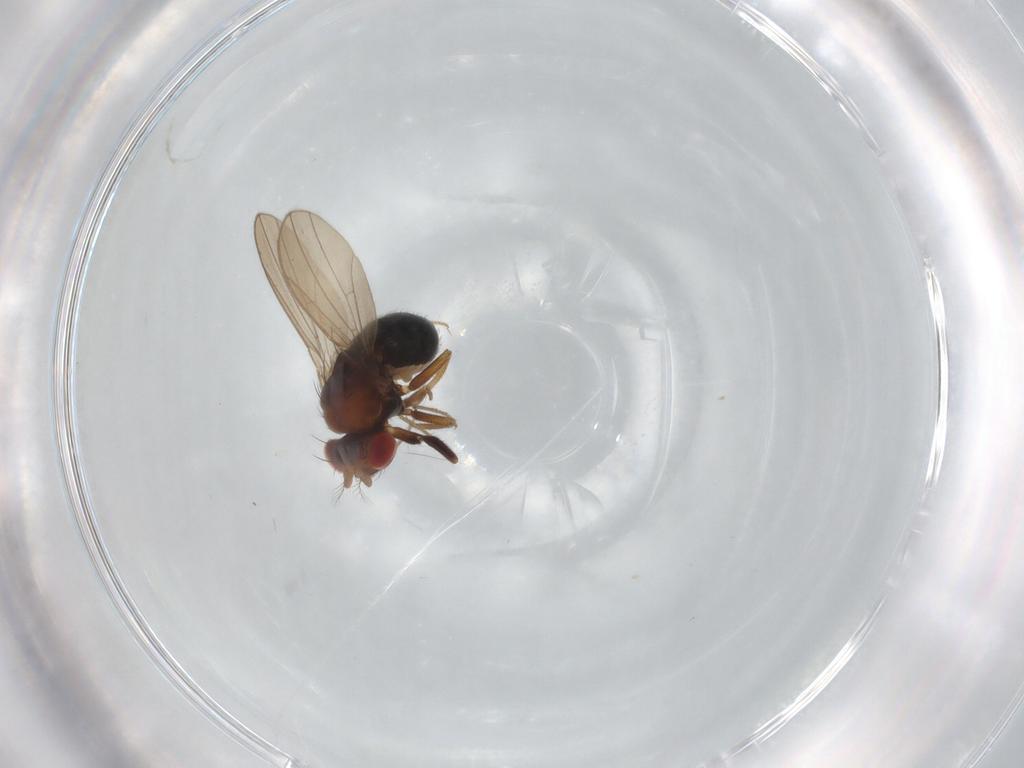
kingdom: Animalia
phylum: Arthropoda
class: Insecta
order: Diptera
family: Drosophilidae
